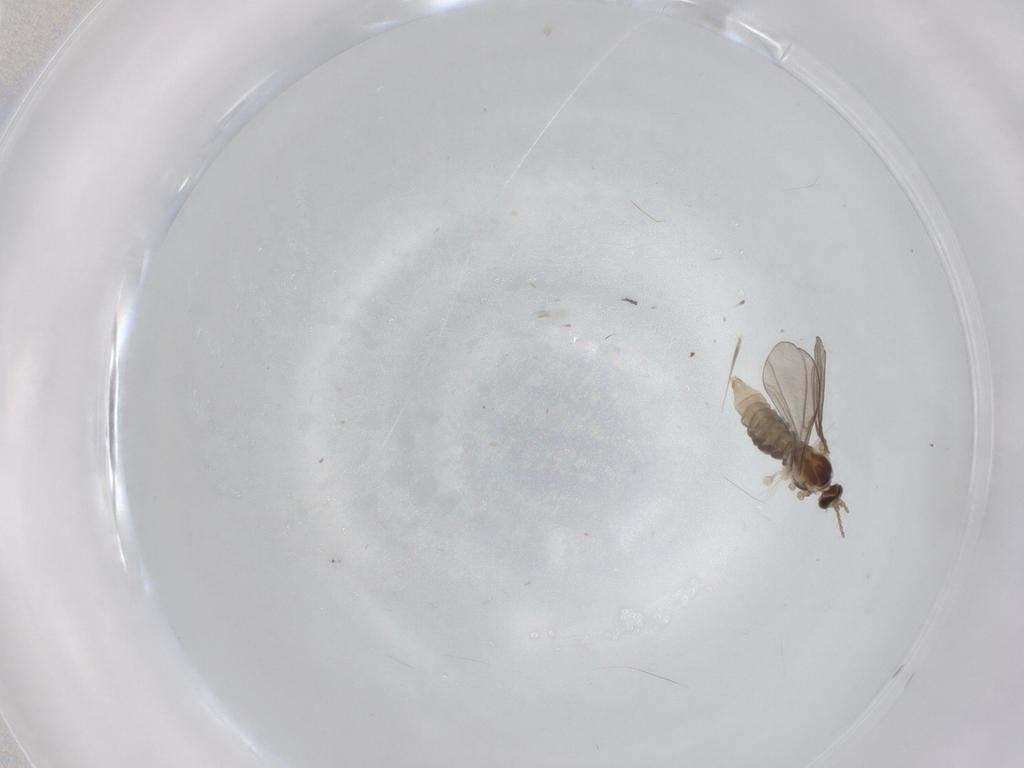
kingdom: Animalia
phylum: Arthropoda
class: Insecta
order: Diptera
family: Cecidomyiidae
